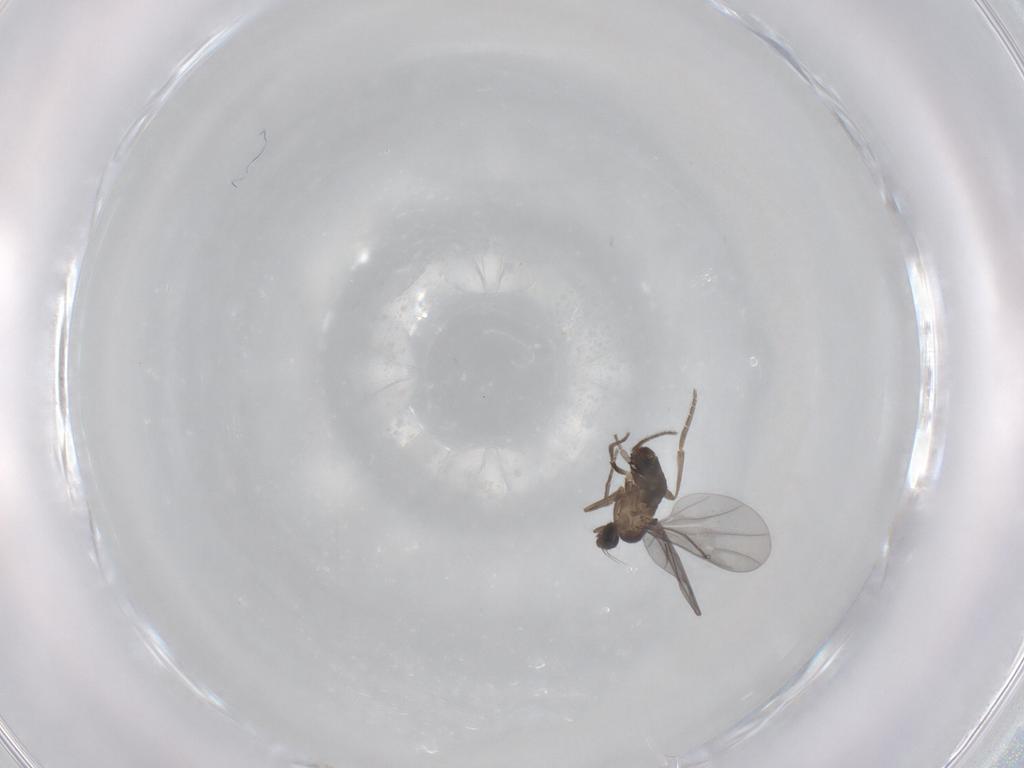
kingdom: Animalia
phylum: Arthropoda
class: Insecta
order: Diptera
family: Phoridae
